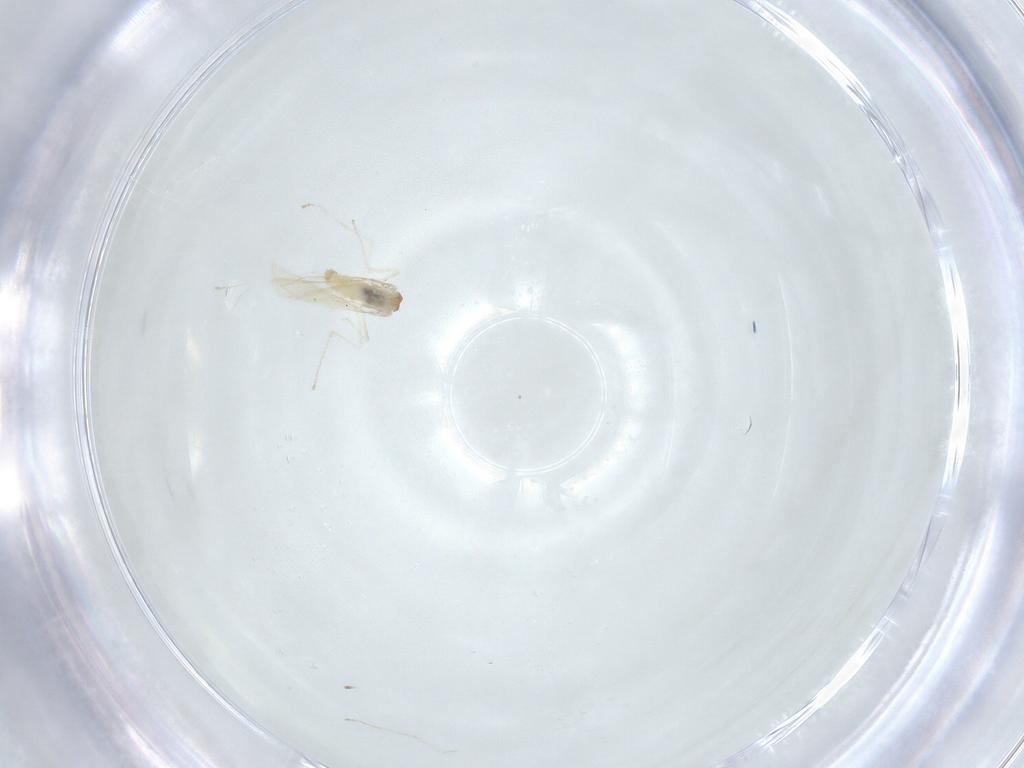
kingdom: Animalia
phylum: Arthropoda
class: Insecta
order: Diptera
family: Cecidomyiidae
